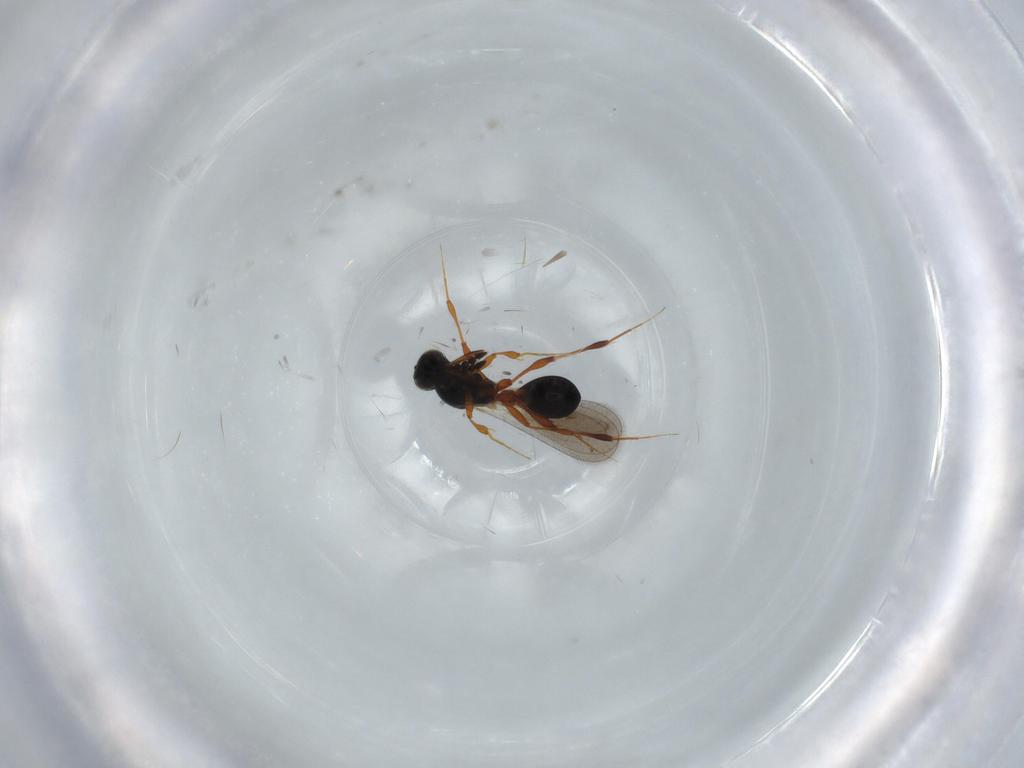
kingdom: Animalia
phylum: Arthropoda
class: Insecta
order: Hymenoptera
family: Platygastridae
